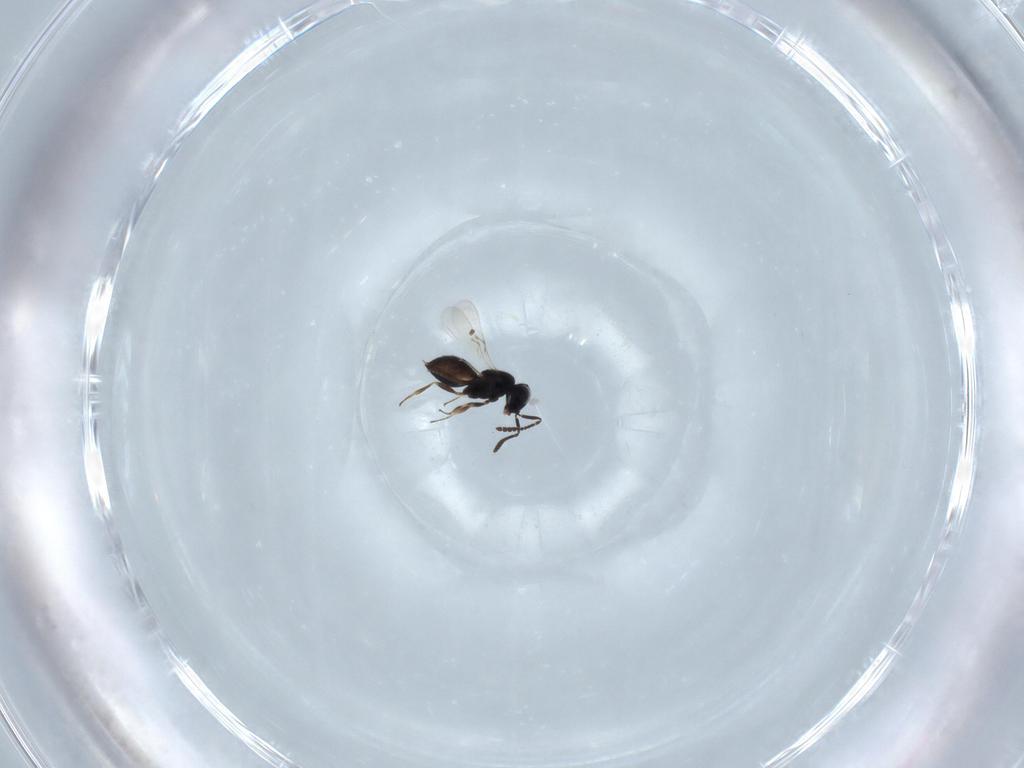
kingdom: Animalia
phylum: Arthropoda
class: Insecta
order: Hymenoptera
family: Scelionidae
